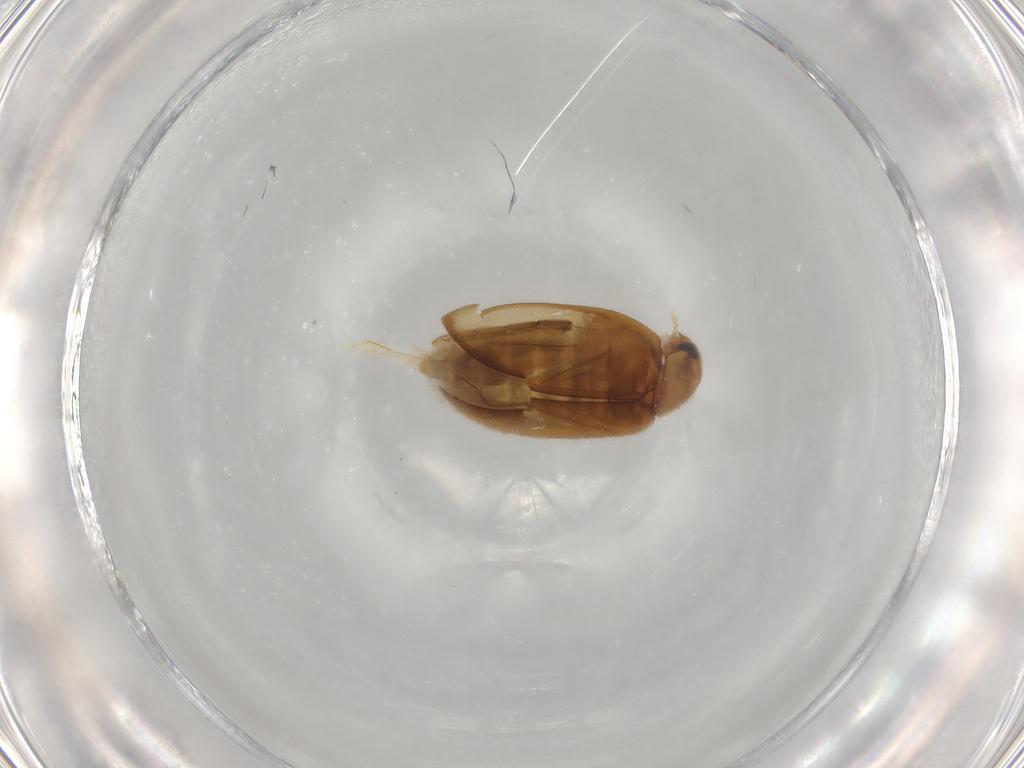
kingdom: Animalia
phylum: Arthropoda
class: Insecta
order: Coleoptera
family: Scirtidae
